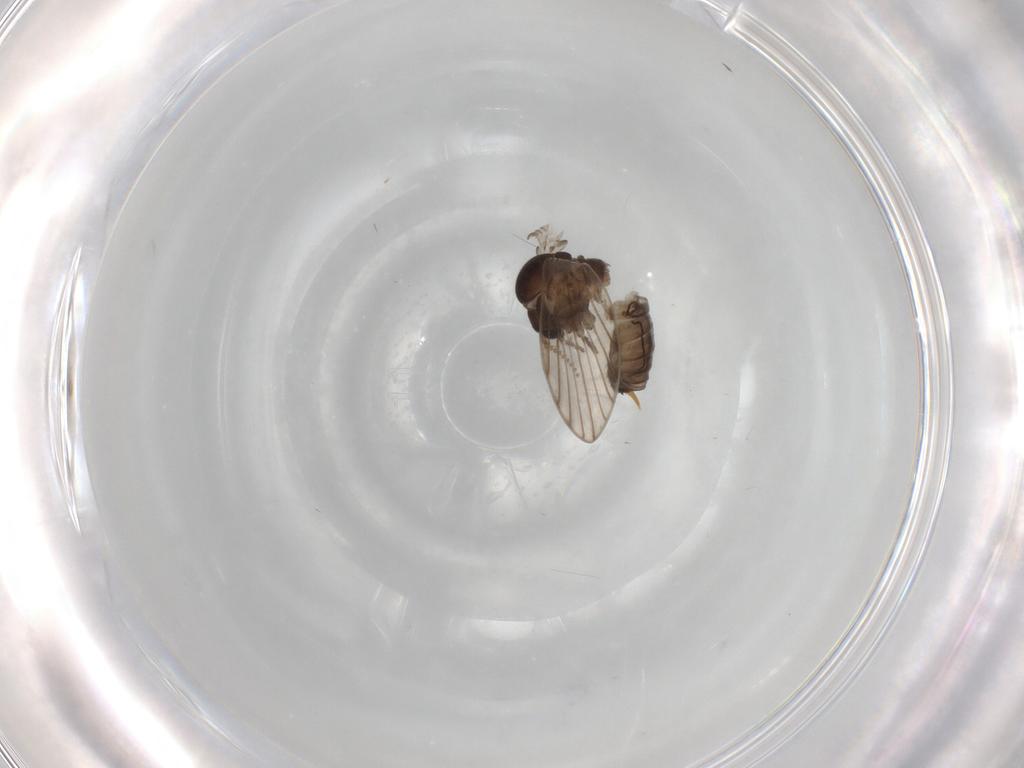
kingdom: Animalia
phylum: Arthropoda
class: Insecta
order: Diptera
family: Psychodidae
